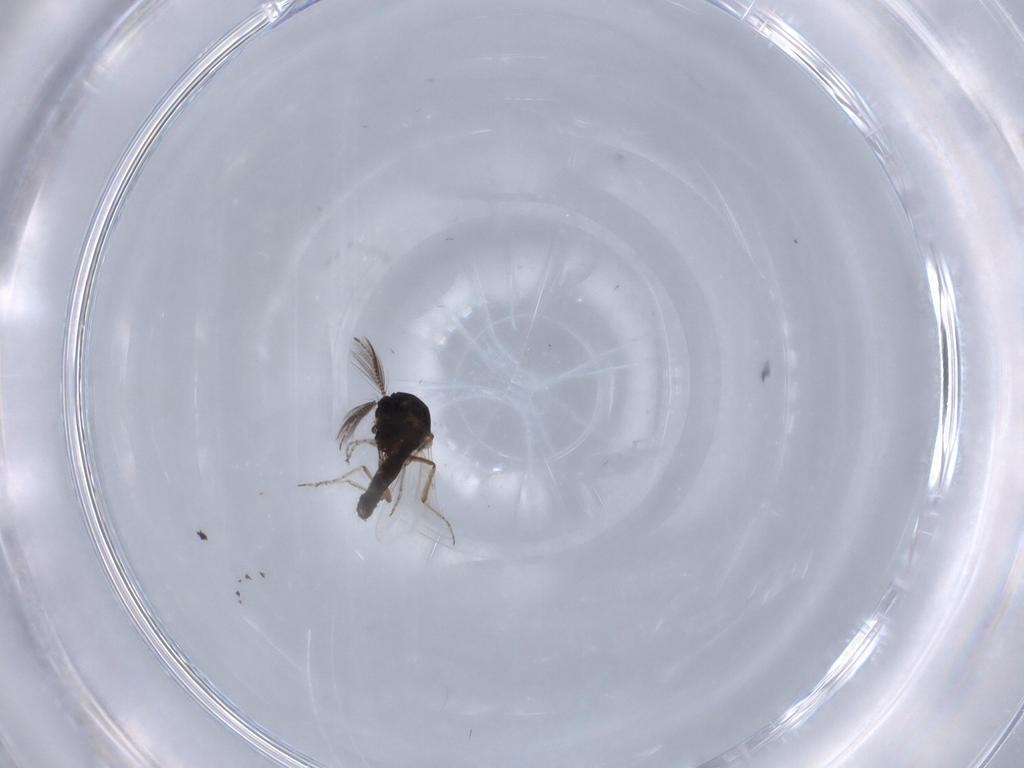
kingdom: Animalia
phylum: Arthropoda
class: Insecta
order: Diptera
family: Ceratopogonidae
